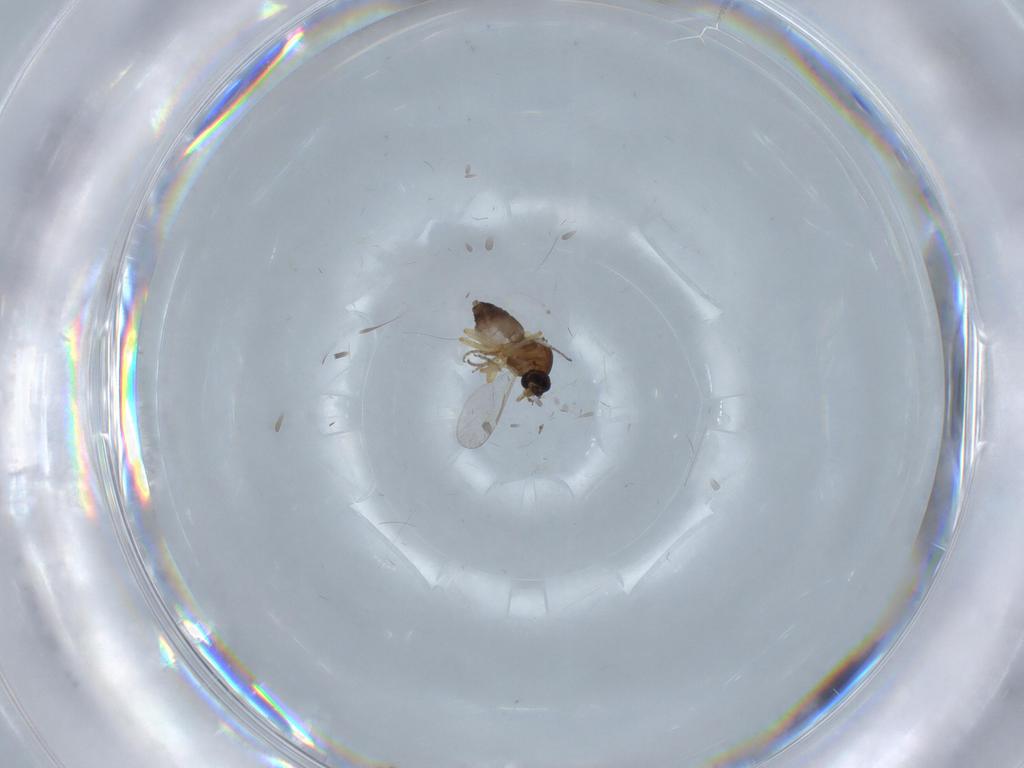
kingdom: Animalia
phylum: Arthropoda
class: Insecta
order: Diptera
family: Ceratopogonidae
